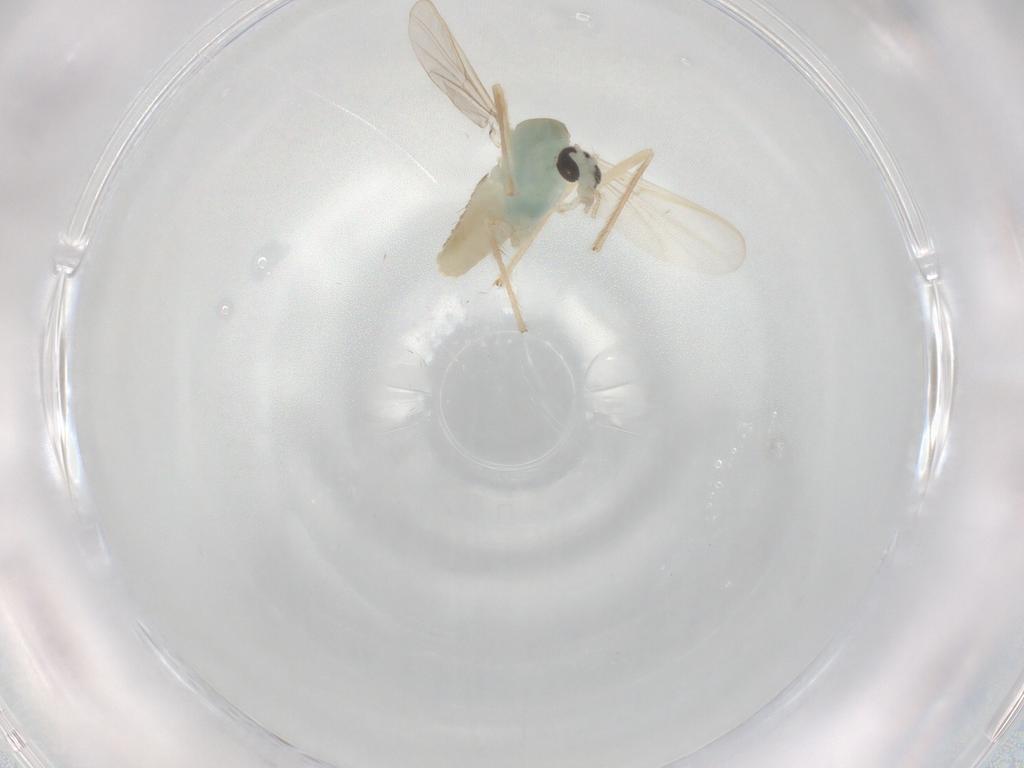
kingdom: Animalia
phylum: Arthropoda
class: Insecta
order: Diptera
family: Chironomidae
